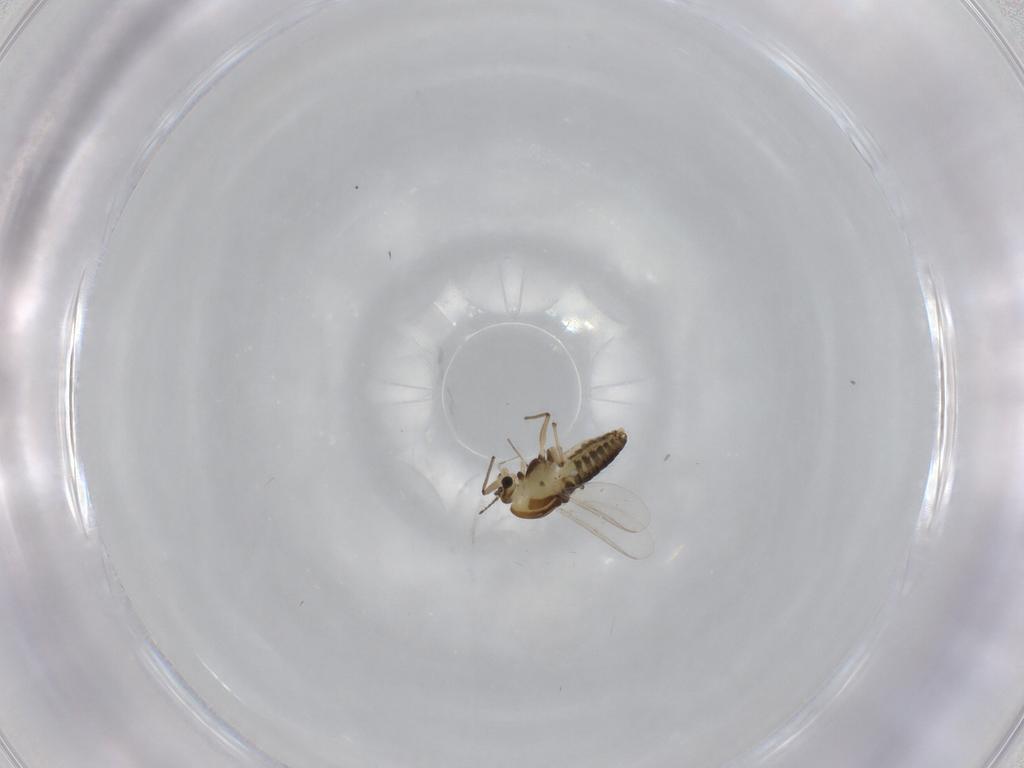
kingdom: Animalia
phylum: Arthropoda
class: Insecta
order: Diptera
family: Chironomidae
